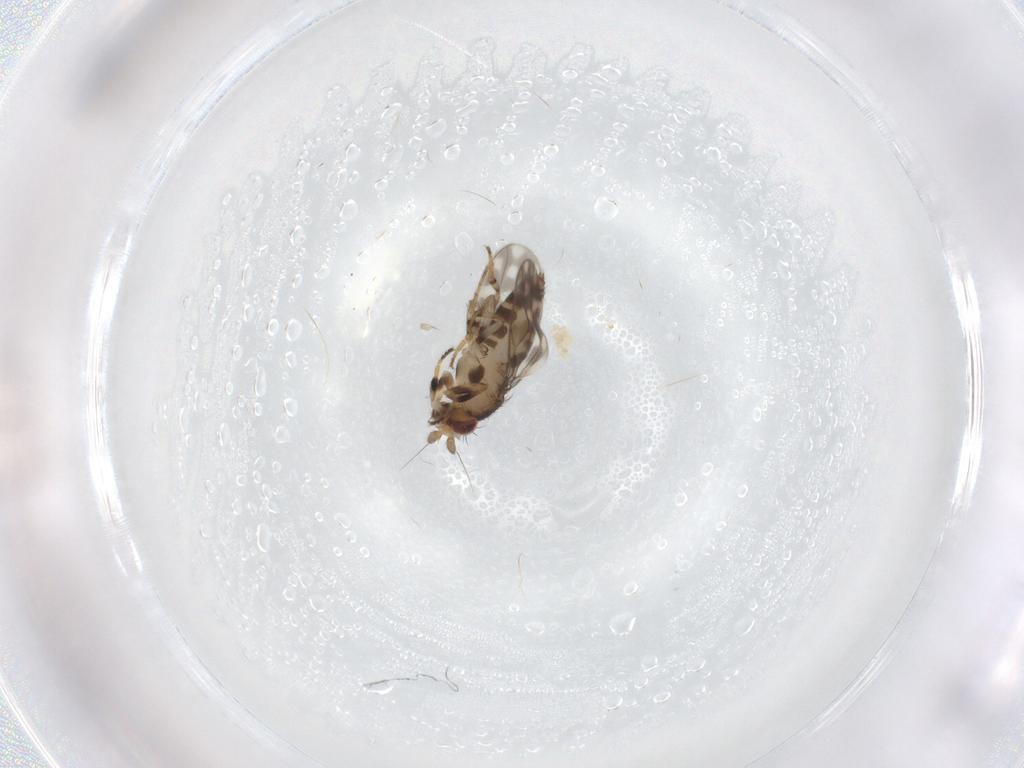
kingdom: Animalia
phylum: Arthropoda
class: Insecta
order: Diptera
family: Sphaeroceridae
